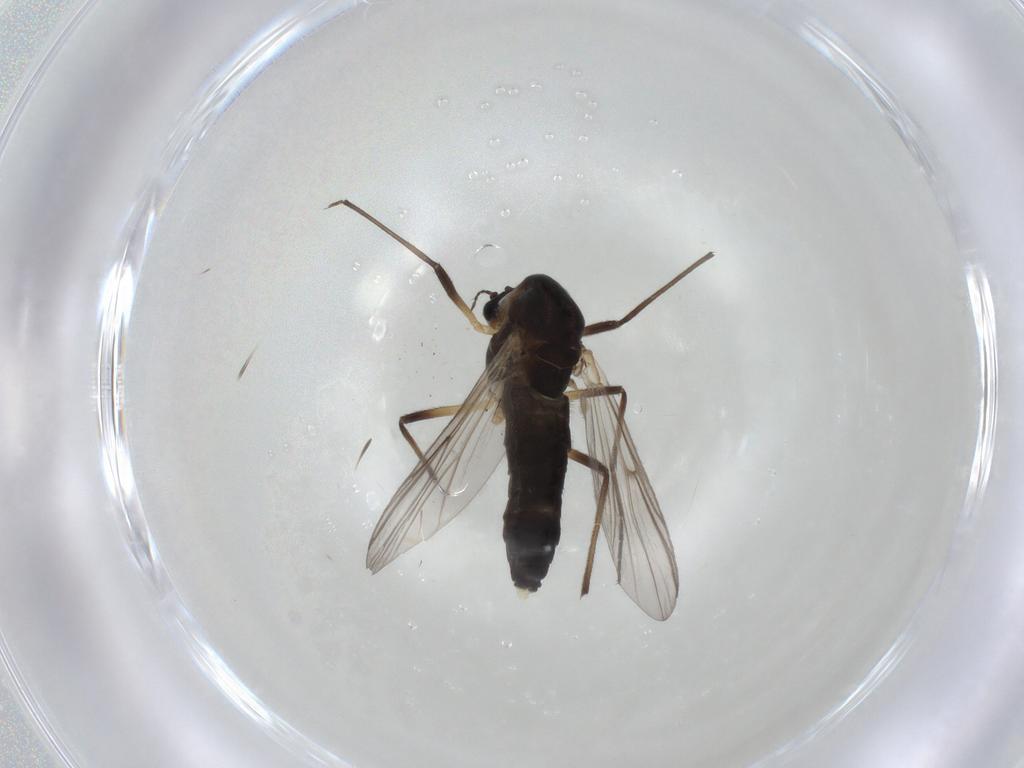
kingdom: Animalia
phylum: Arthropoda
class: Insecta
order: Diptera
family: Chironomidae
